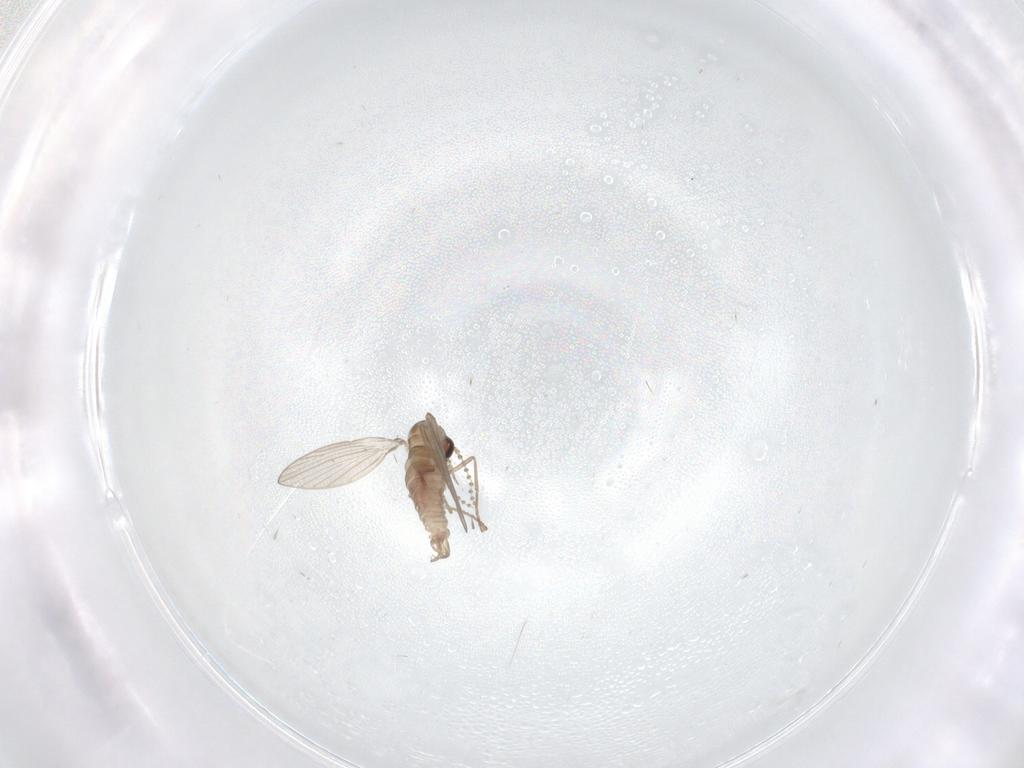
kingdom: Animalia
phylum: Arthropoda
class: Insecta
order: Diptera
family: Psychodidae
